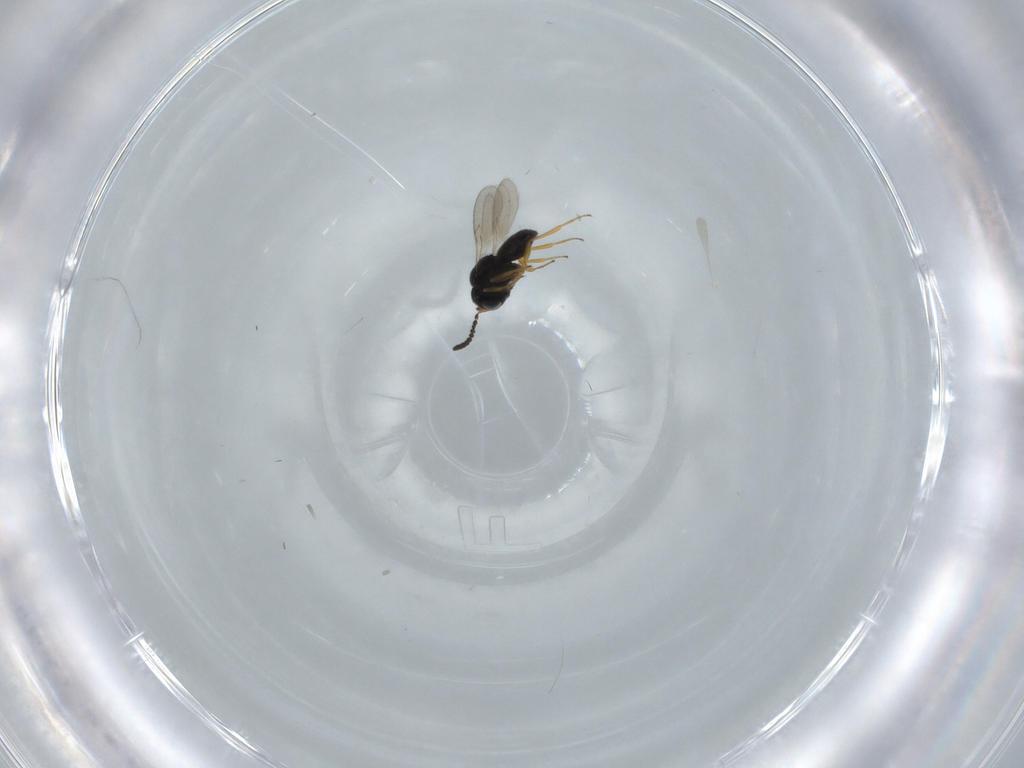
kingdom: Animalia
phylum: Arthropoda
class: Insecta
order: Hymenoptera
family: Scelionidae
